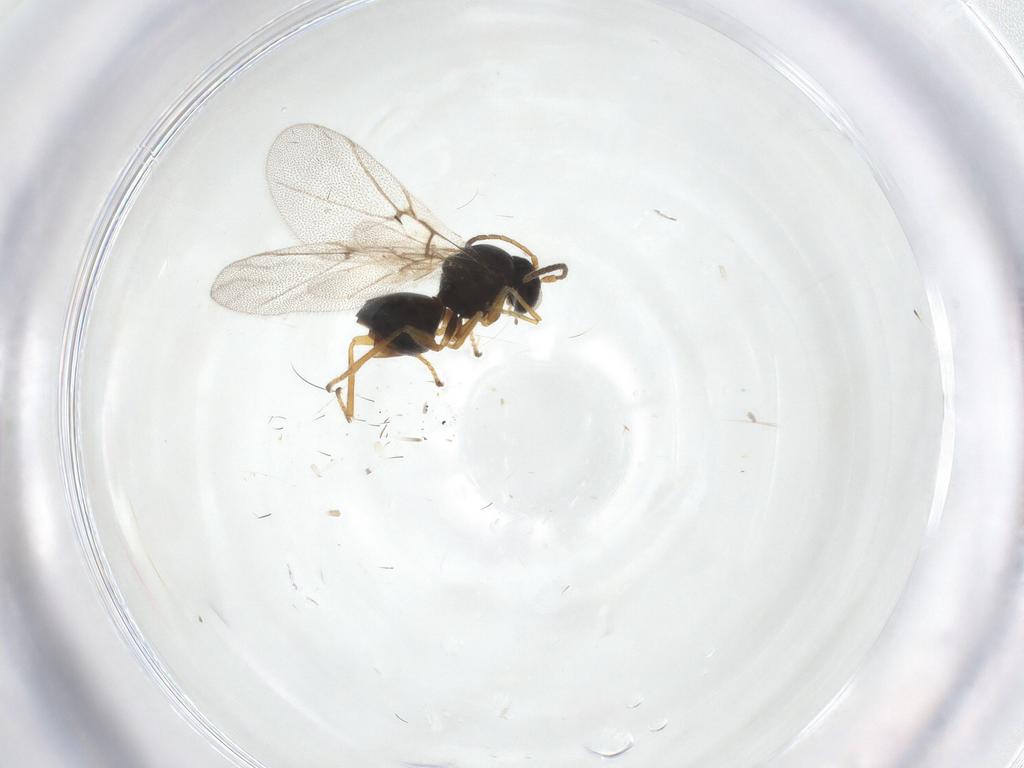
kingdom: Animalia
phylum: Arthropoda
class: Insecta
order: Hymenoptera
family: Cynipidae
